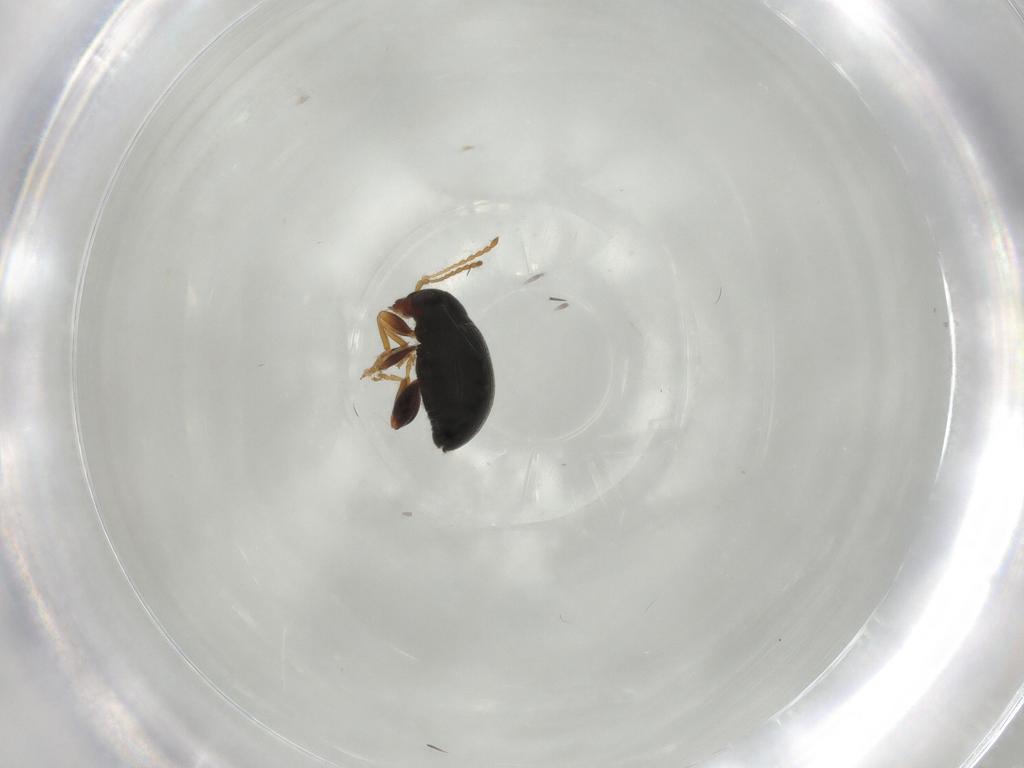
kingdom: Animalia
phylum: Arthropoda
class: Insecta
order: Coleoptera
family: Chrysomelidae
